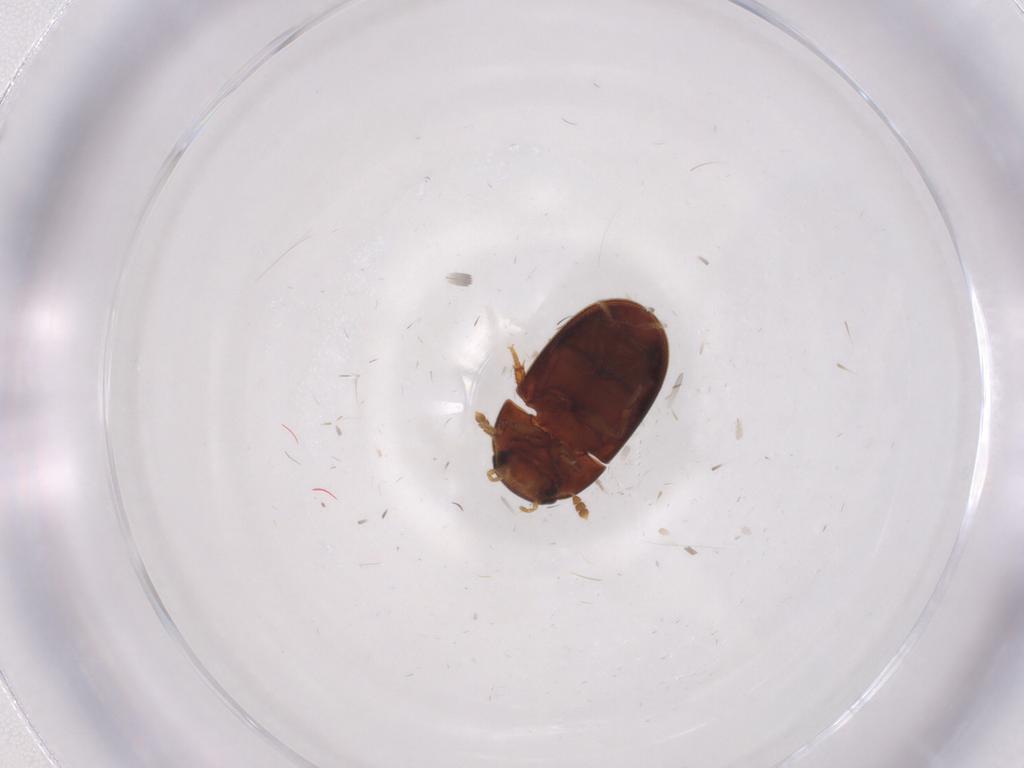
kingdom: Animalia
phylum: Arthropoda
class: Insecta
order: Coleoptera
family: Hydrophilidae
